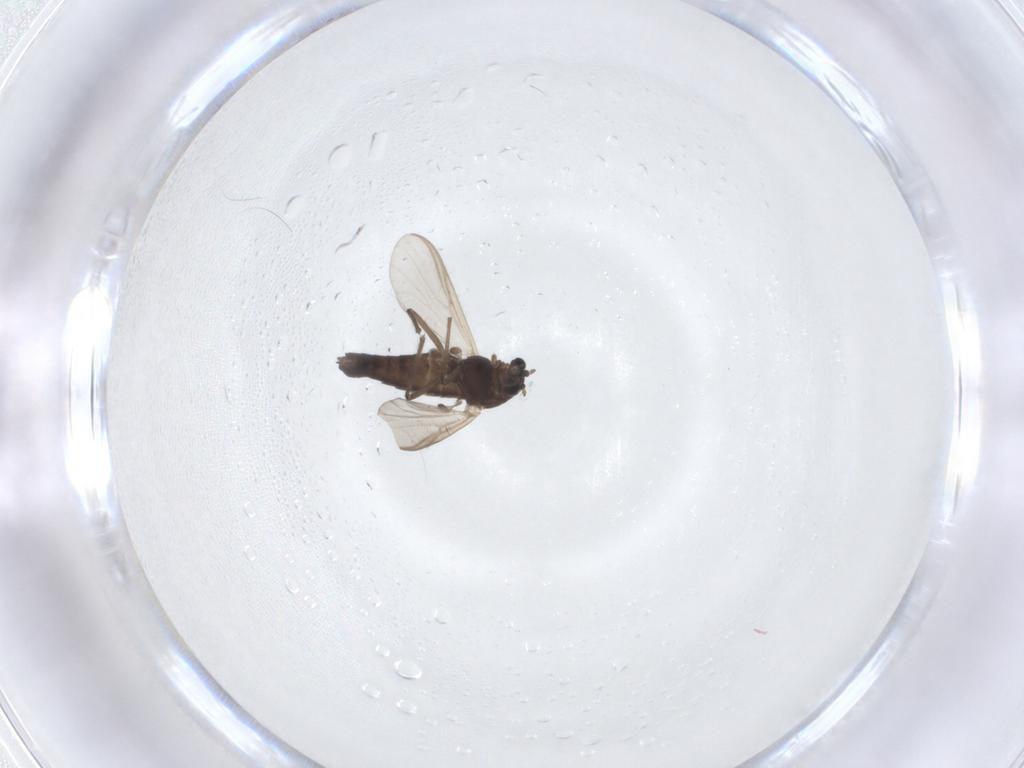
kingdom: Animalia
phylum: Arthropoda
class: Insecta
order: Diptera
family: Chironomidae
